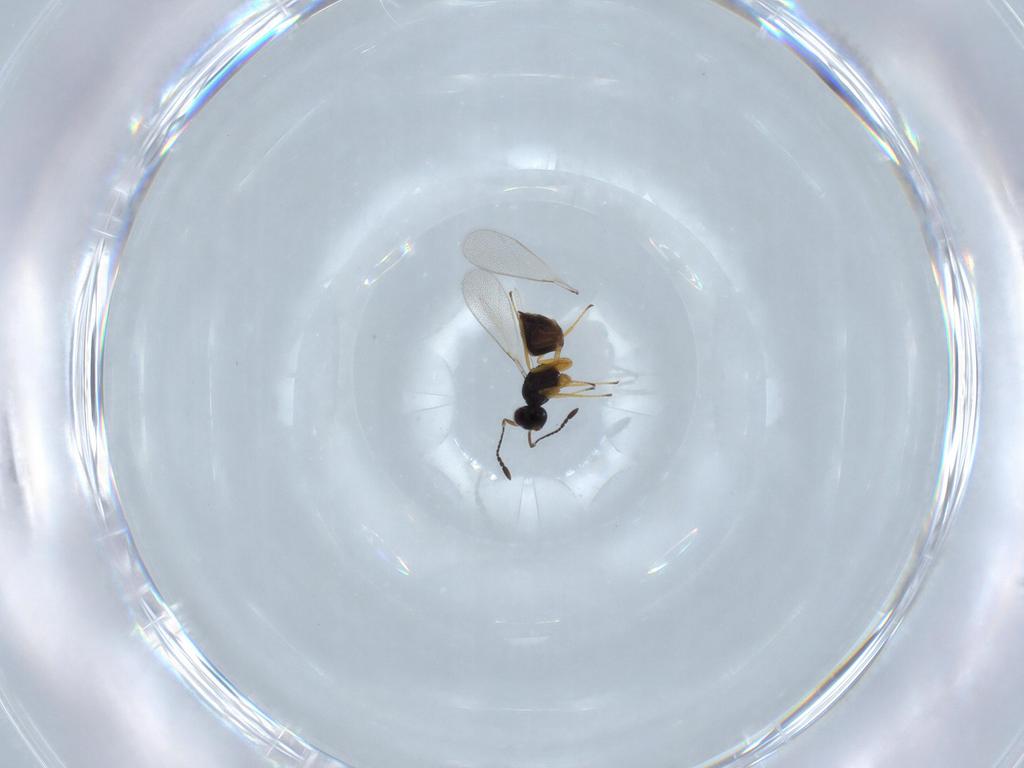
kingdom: Animalia
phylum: Arthropoda
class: Insecta
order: Hymenoptera
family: Mymaridae
